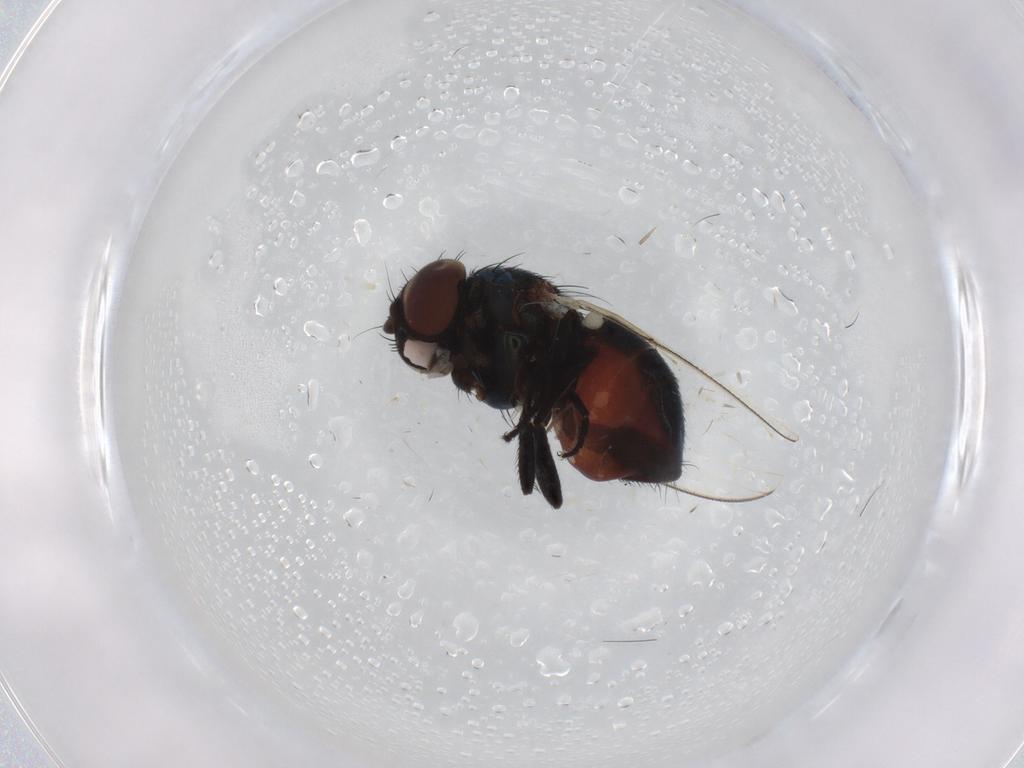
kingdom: Animalia
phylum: Arthropoda
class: Insecta
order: Diptera
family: Milichiidae
